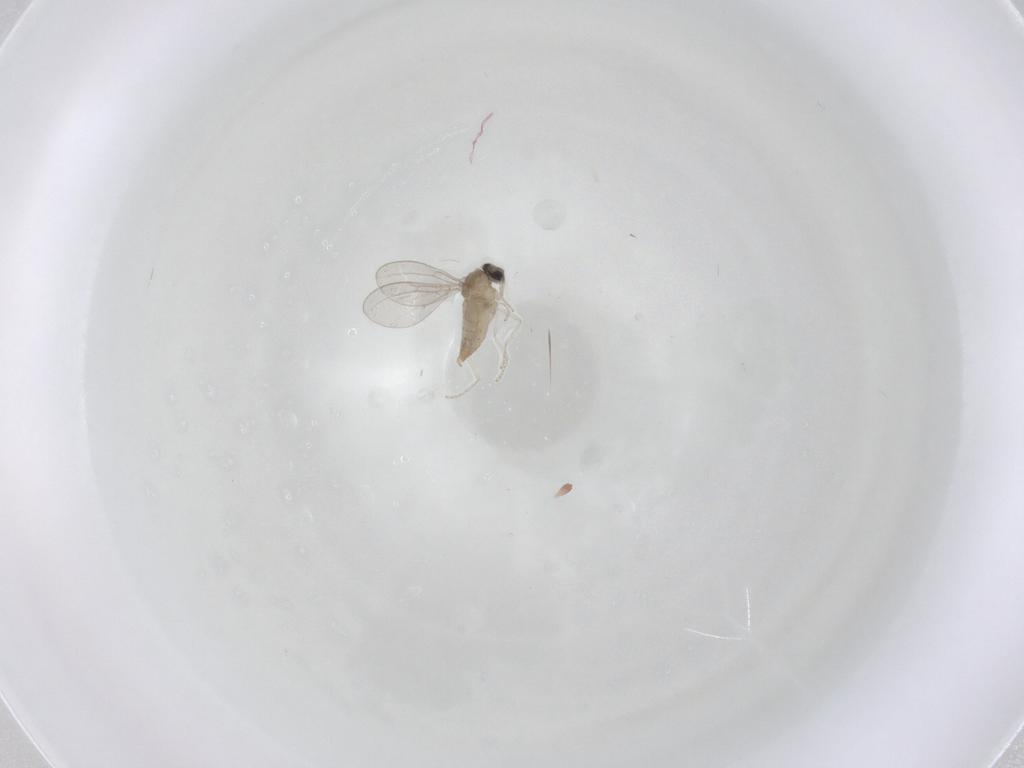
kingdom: Animalia
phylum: Arthropoda
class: Insecta
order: Diptera
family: Cecidomyiidae
